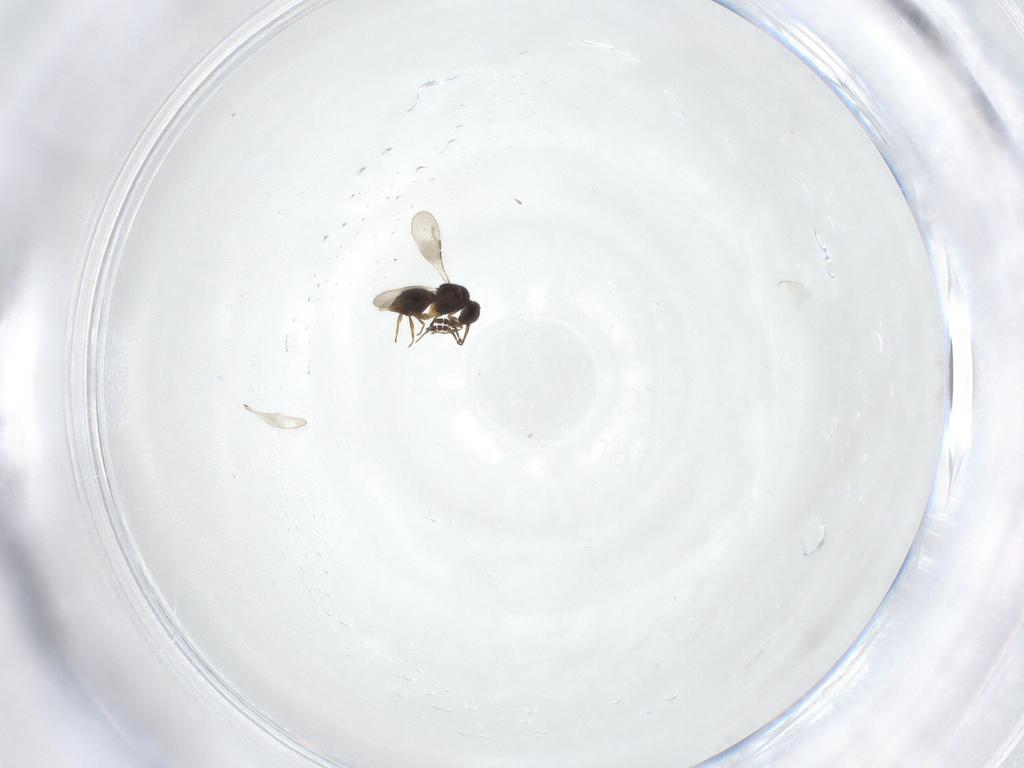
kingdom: Animalia
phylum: Arthropoda
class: Insecta
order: Hymenoptera
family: Ceraphronidae
